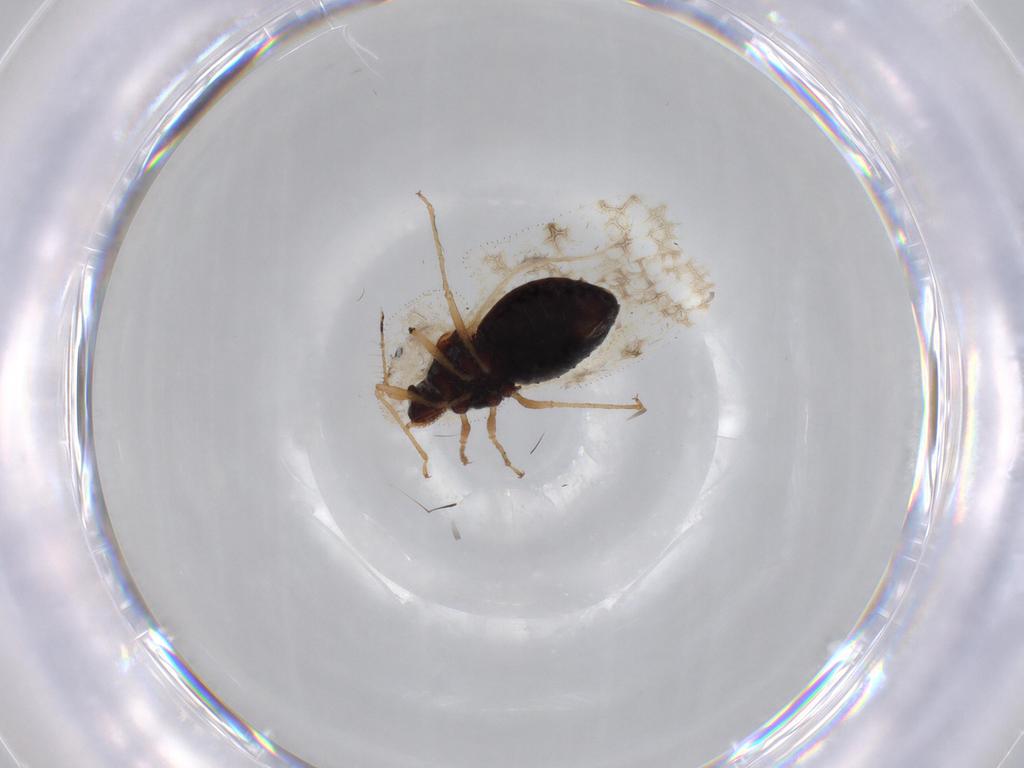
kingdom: Animalia
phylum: Arthropoda
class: Insecta
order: Hemiptera
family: Tingidae
